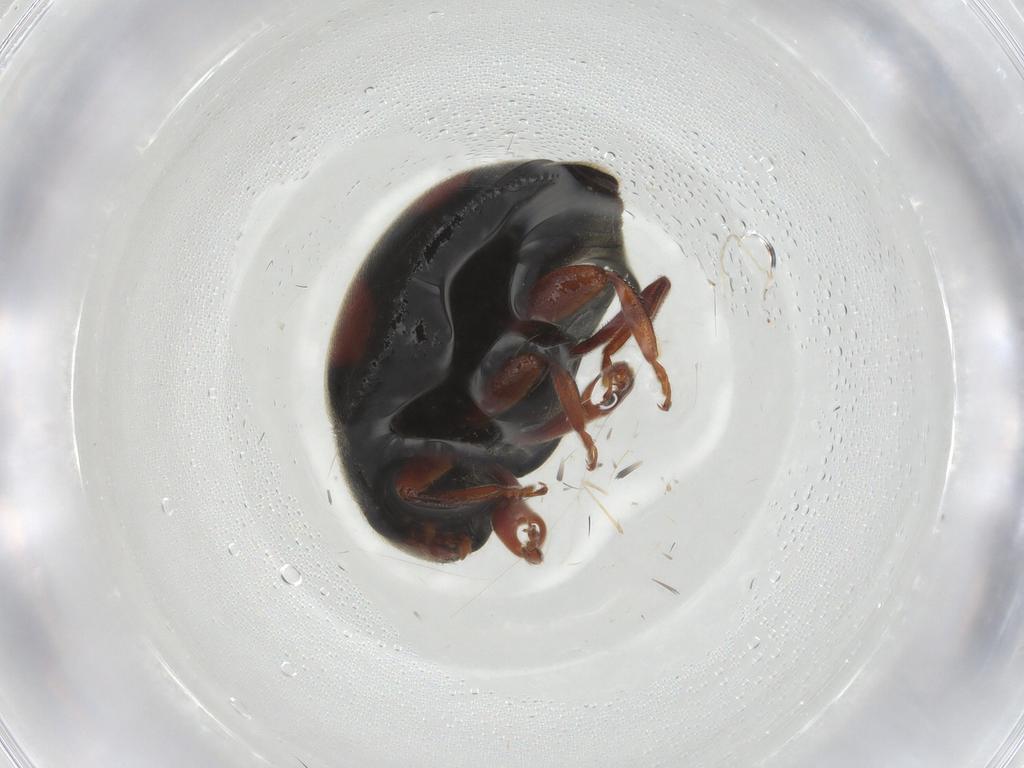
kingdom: Animalia
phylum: Arthropoda
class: Insecta
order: Coleoptera
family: Coccinellidae
